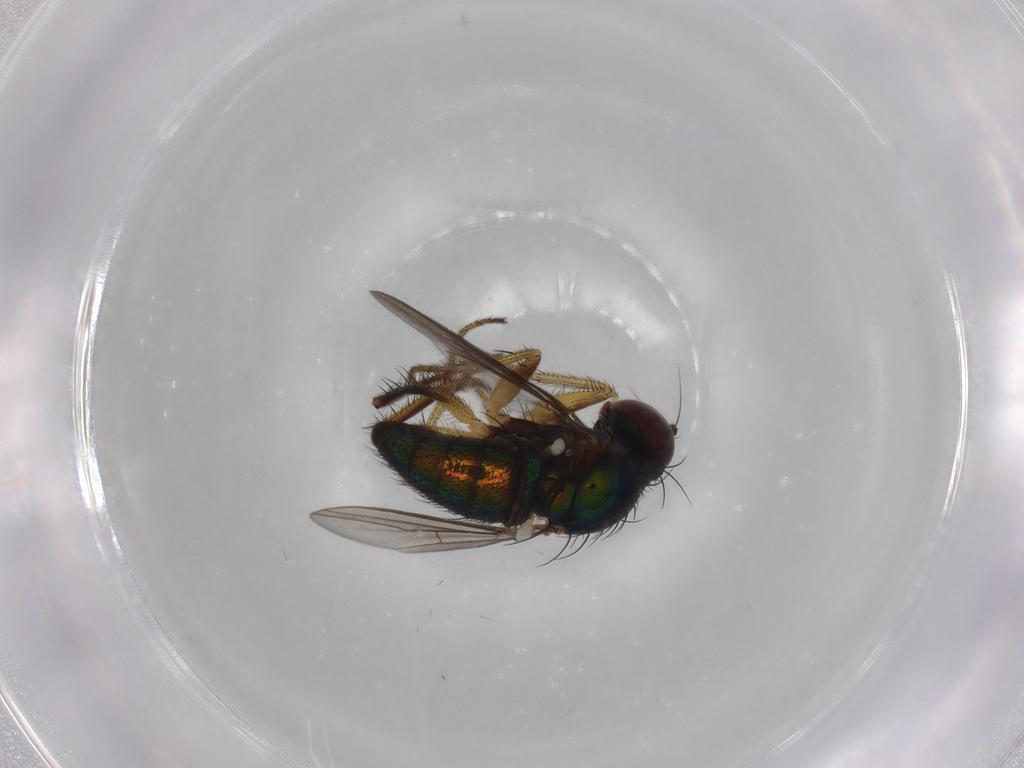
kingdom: Animalia
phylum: Arthropoda
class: Insecta
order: Diptera
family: Dolichopodidae
